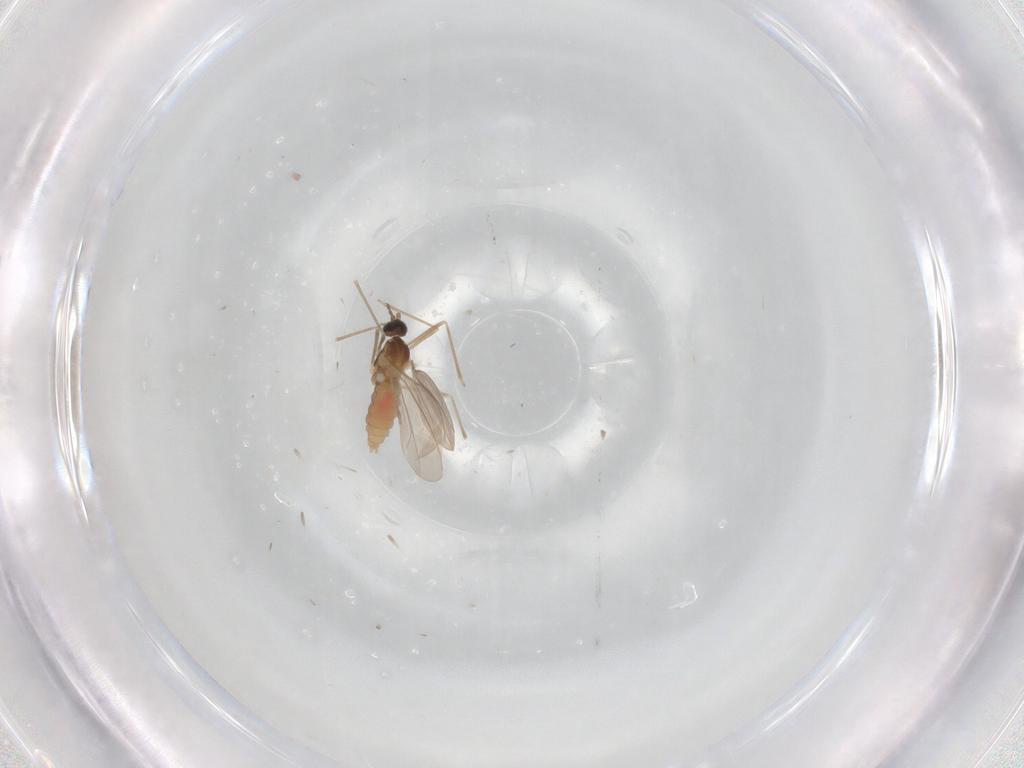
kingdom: Animalia
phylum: Arthropoda
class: Insecta
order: Diptera
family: Cecidomyiidae
